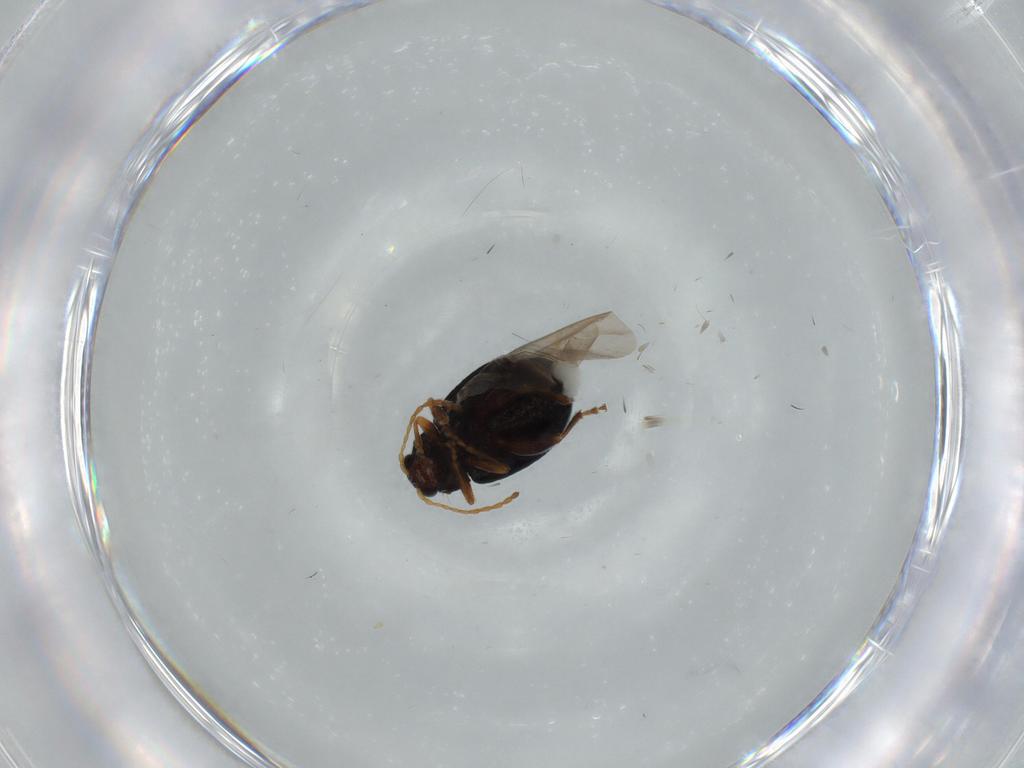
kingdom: Animalia
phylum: Arthropoda
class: Insecta
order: Coleoptera
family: Chrysomelidae
